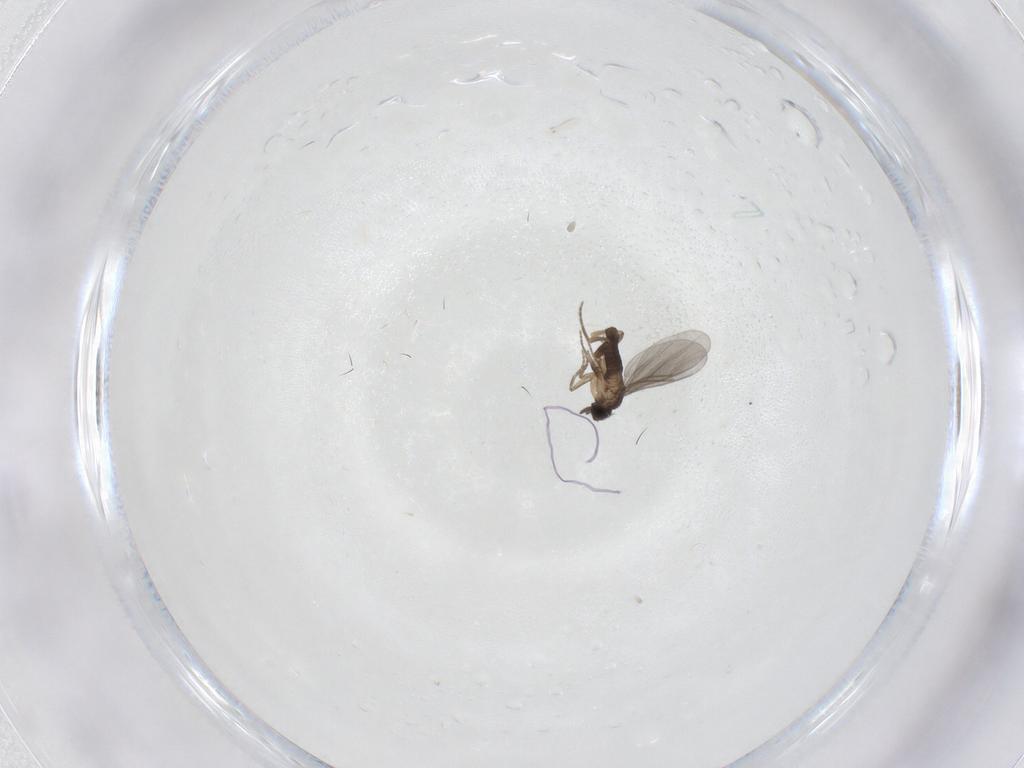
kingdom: Animalia
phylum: Arthropoda
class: Insecta
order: Diptera
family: Chironomidae
